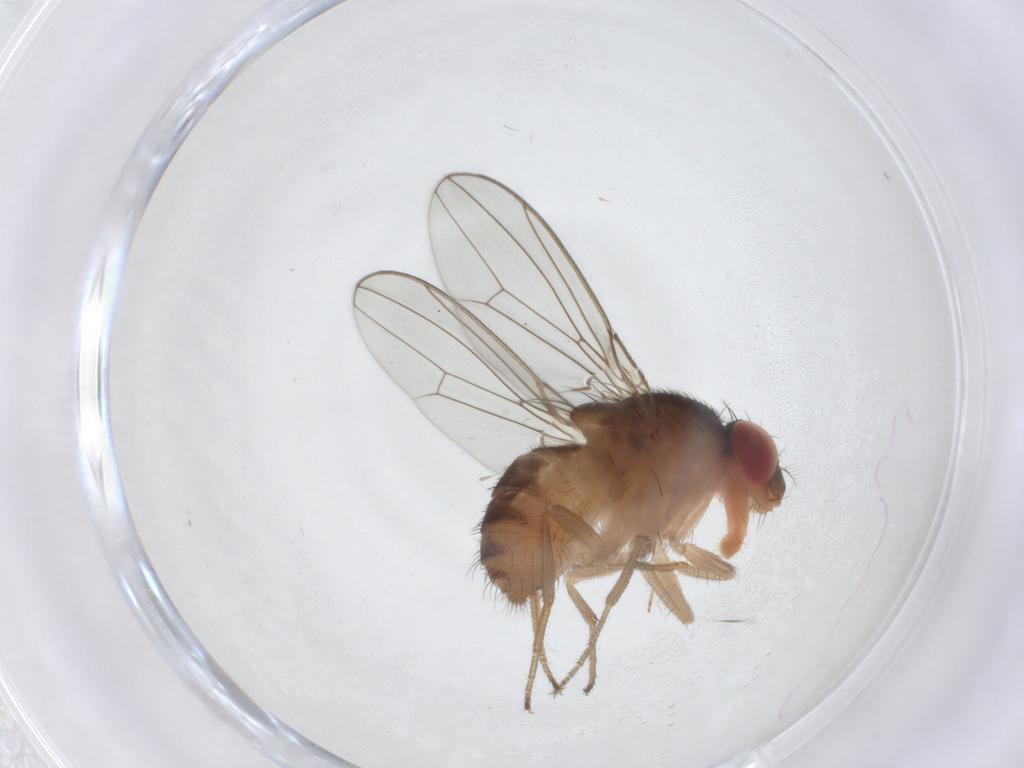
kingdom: Animalia
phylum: Arthropoda
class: Insecta
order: Diptera
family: Drosophilidae
